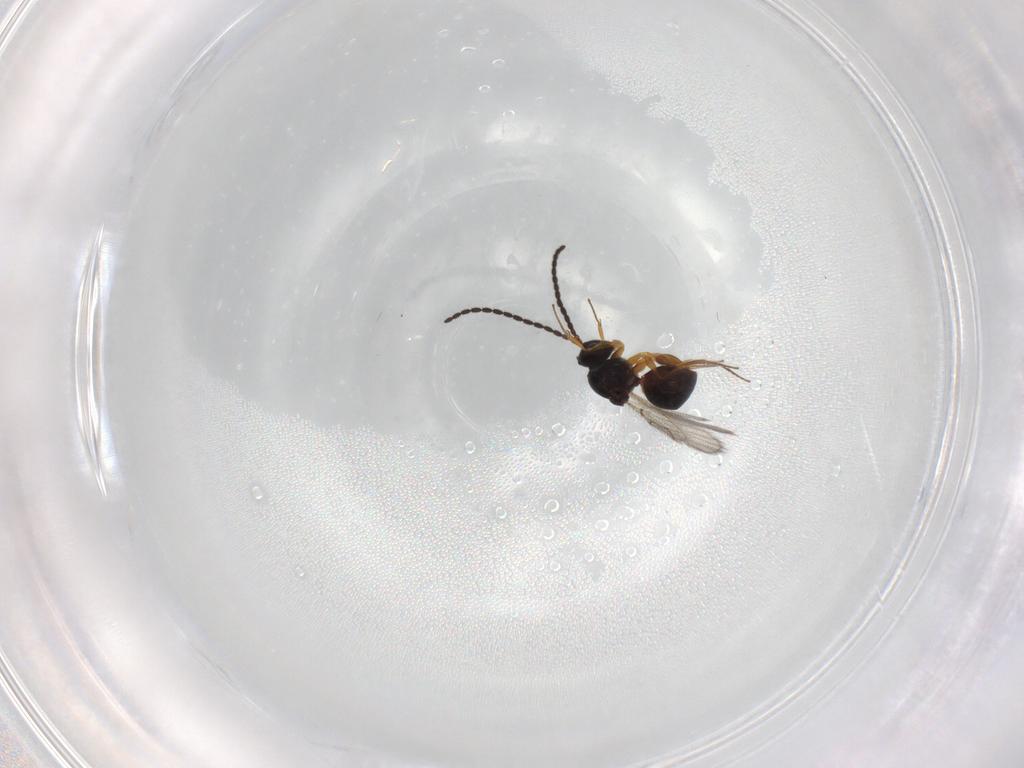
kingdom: Animalia
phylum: Arthropoda
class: Insecta
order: Hymenoptera
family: Figitidae
